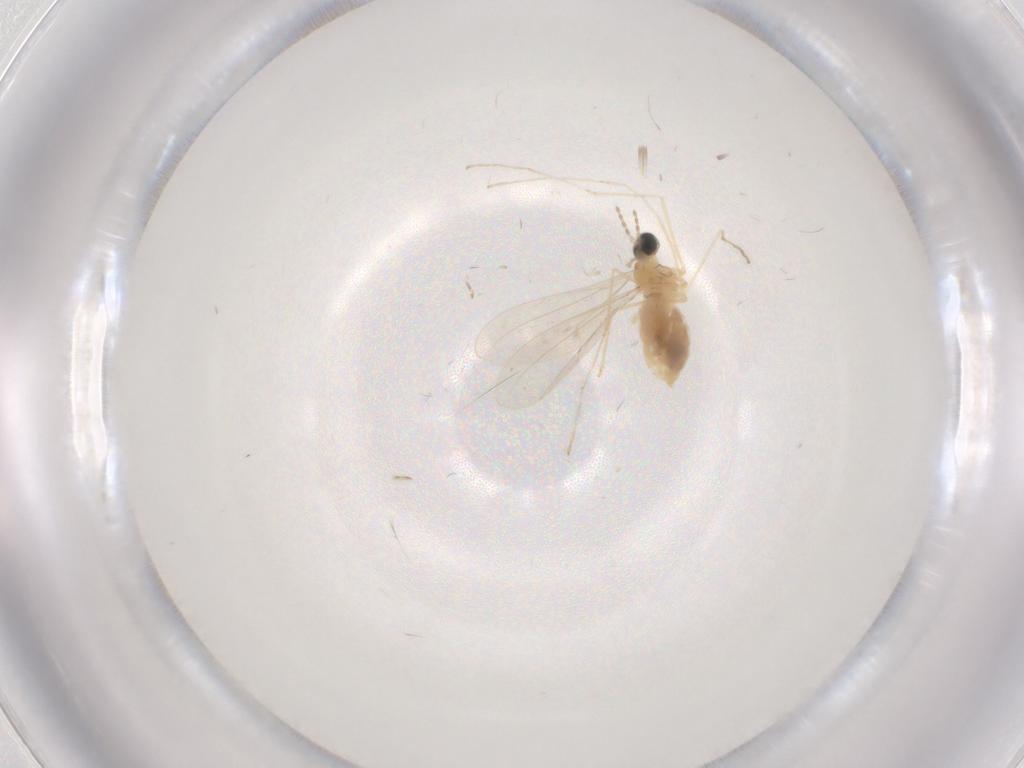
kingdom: Animalia
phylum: Arthropoda
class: Insecta
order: Diptera
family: Cecidomyiidae
